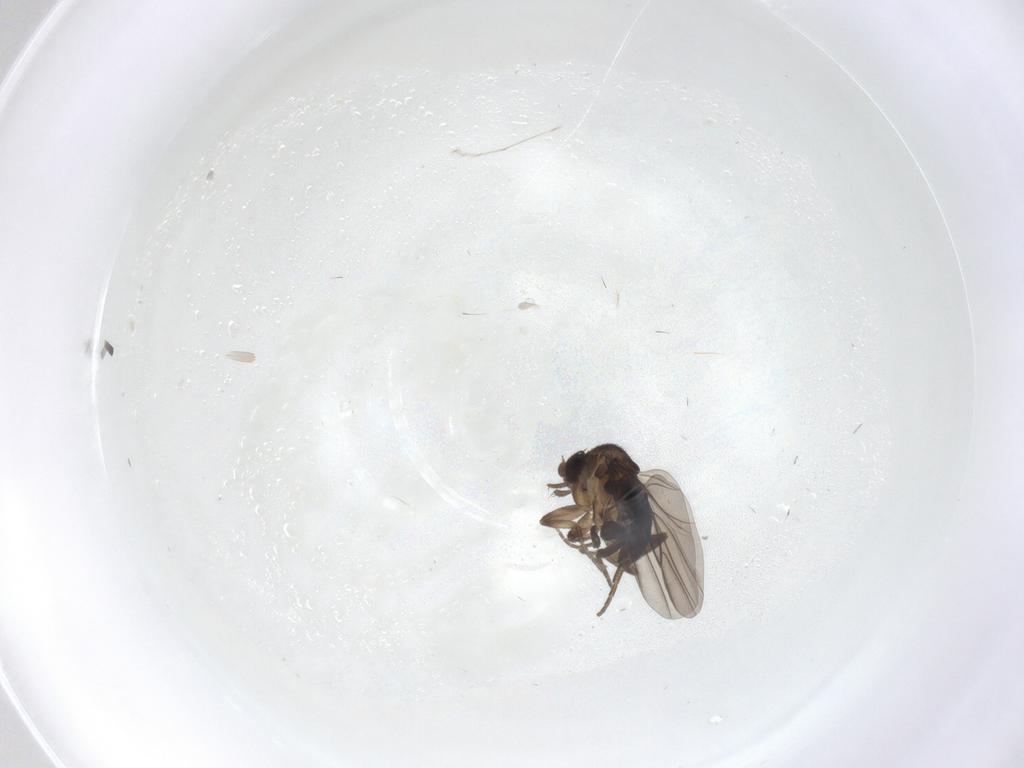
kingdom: Animalia
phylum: Arthropoda
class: Insecta
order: Diptera
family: Phoridae
